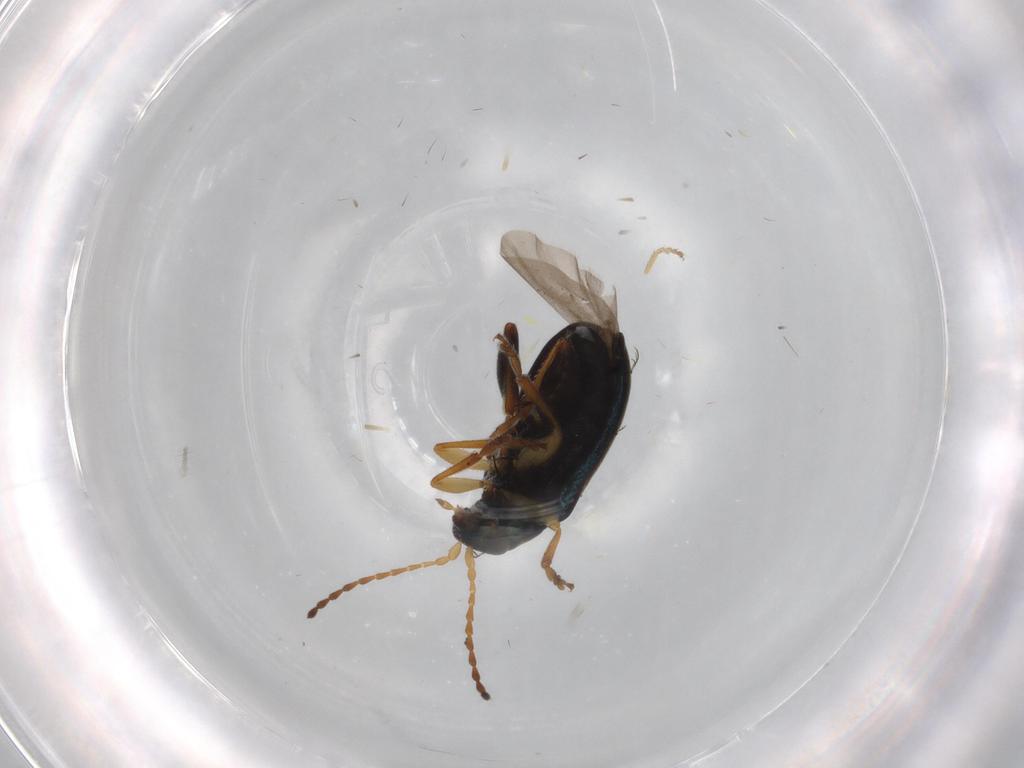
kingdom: Animalia
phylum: Arthropoda
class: Insecta
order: Coleoptera
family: Chrysomelidae
